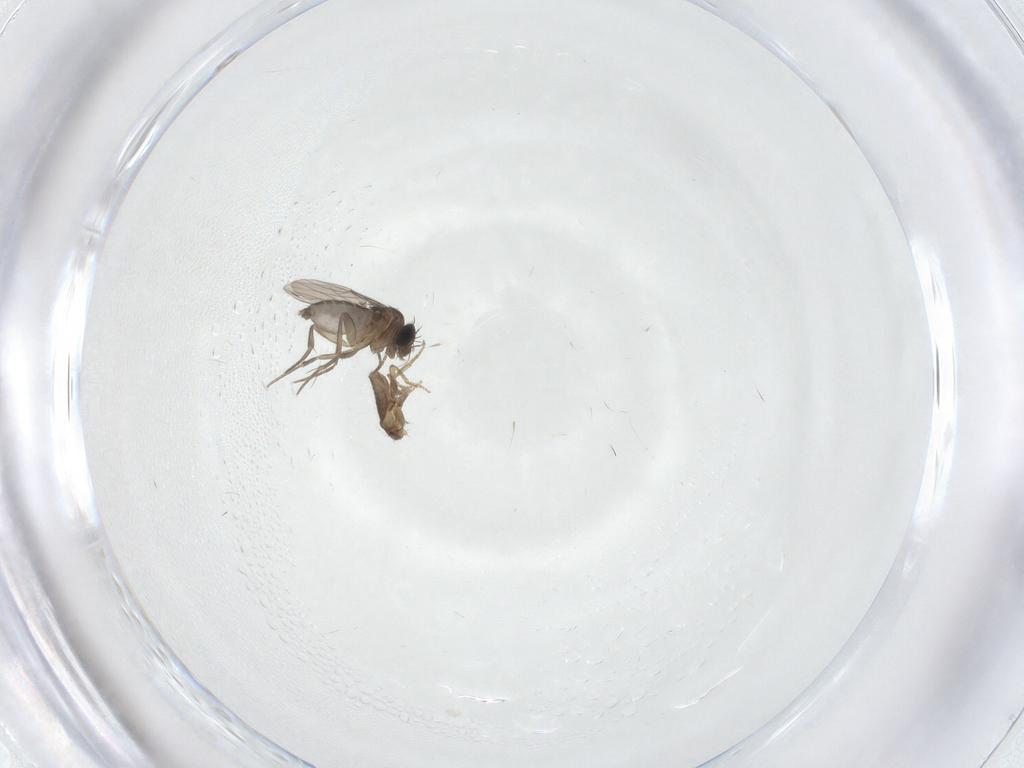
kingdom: Animalia
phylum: Arthropoda
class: Insecta
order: Diptera
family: Phoridae
